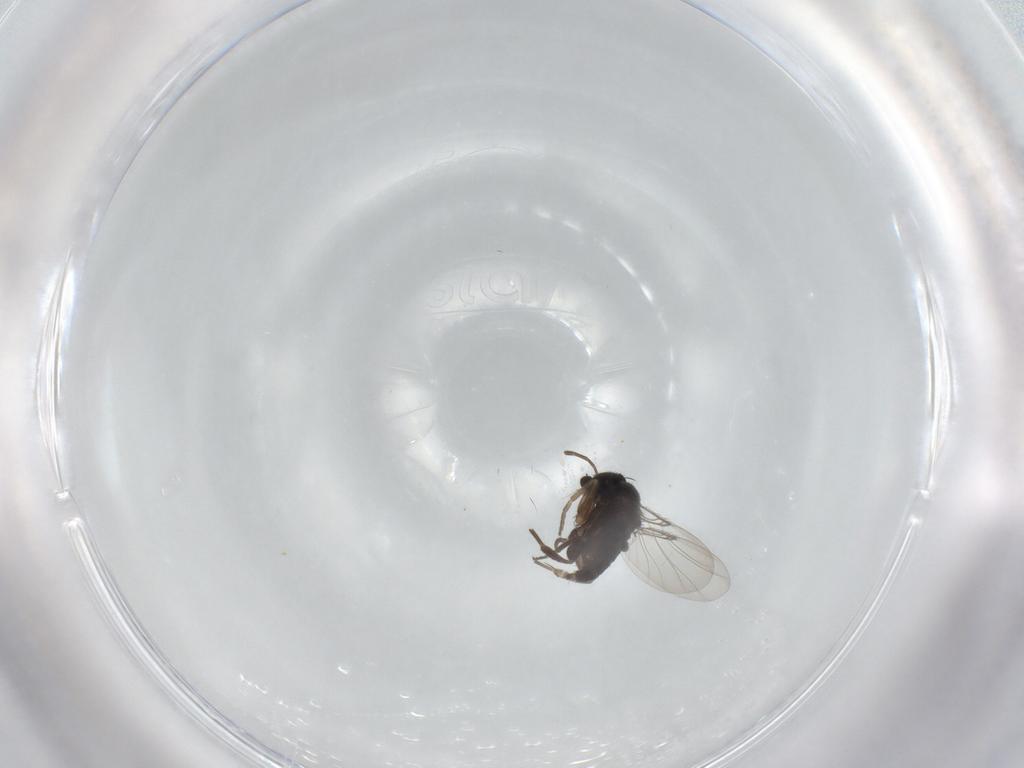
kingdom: Animalia
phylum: Arthropoda
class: Insecta
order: Diptera
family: Phoridae
